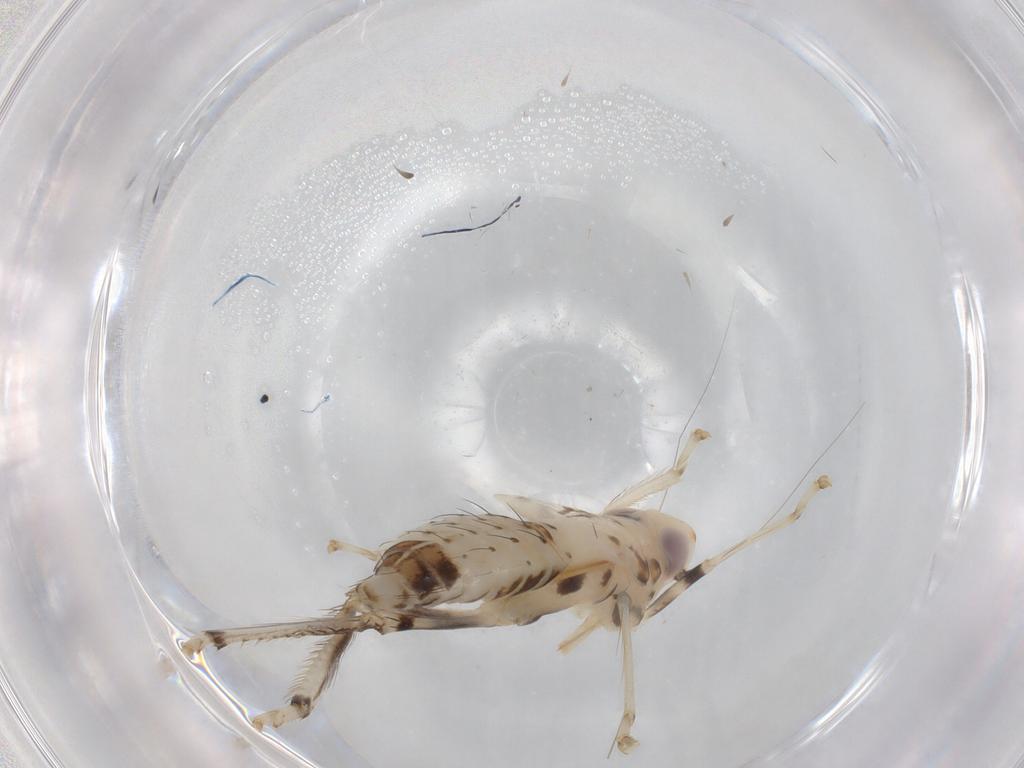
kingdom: Animalia
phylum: Arthropoda
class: Insecta
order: Hemiptera
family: Cicadellidae
